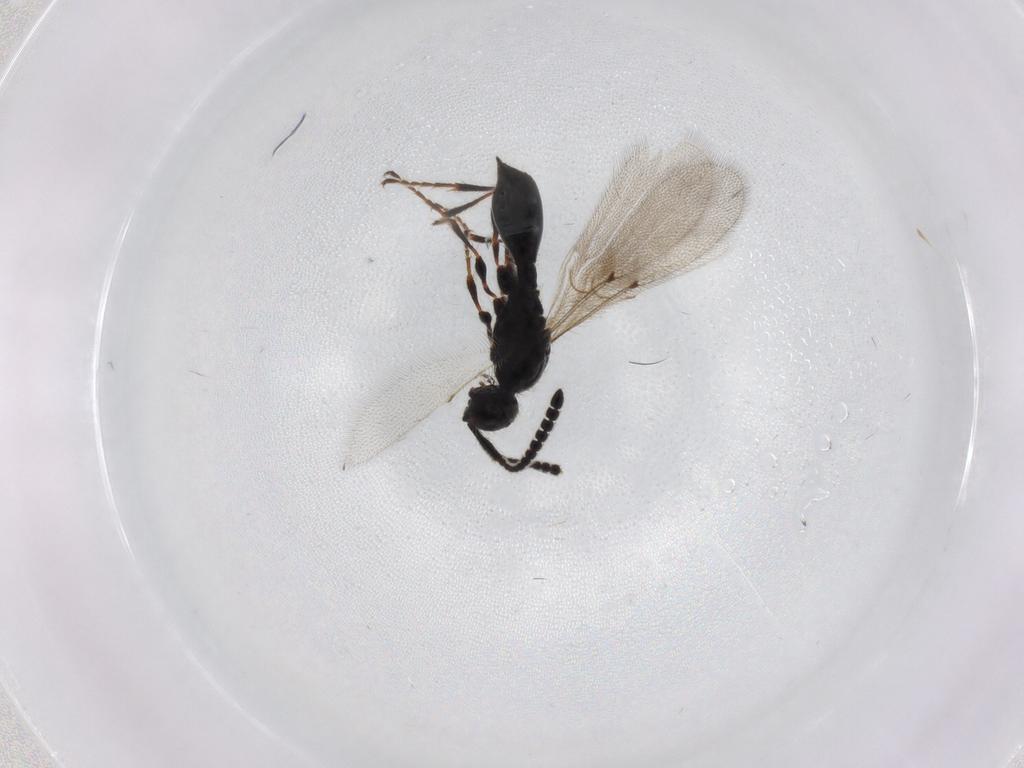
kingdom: Animalia
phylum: Arthropoda
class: Insecta
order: Hymenoptera
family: Diapriidae
